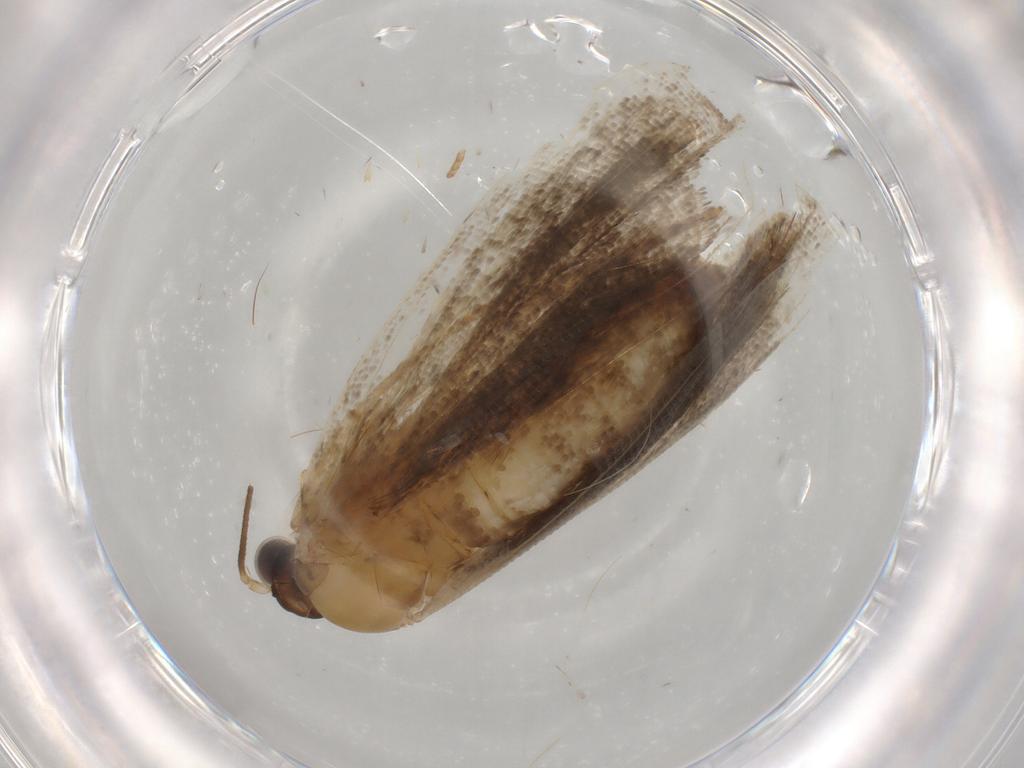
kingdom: Animalia
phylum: Arthropoda
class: Insecta
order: Lepidoptera
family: Tortricidae
